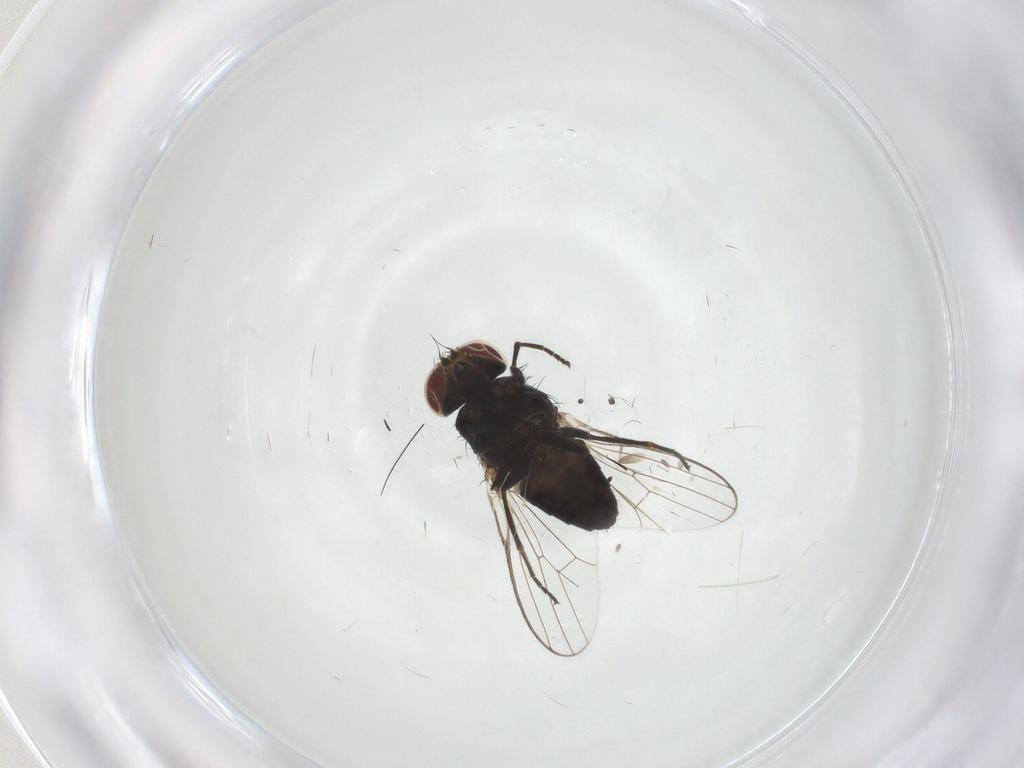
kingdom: Animalia
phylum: Arthropoda
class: Insecta
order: Diptera
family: Carnidae
